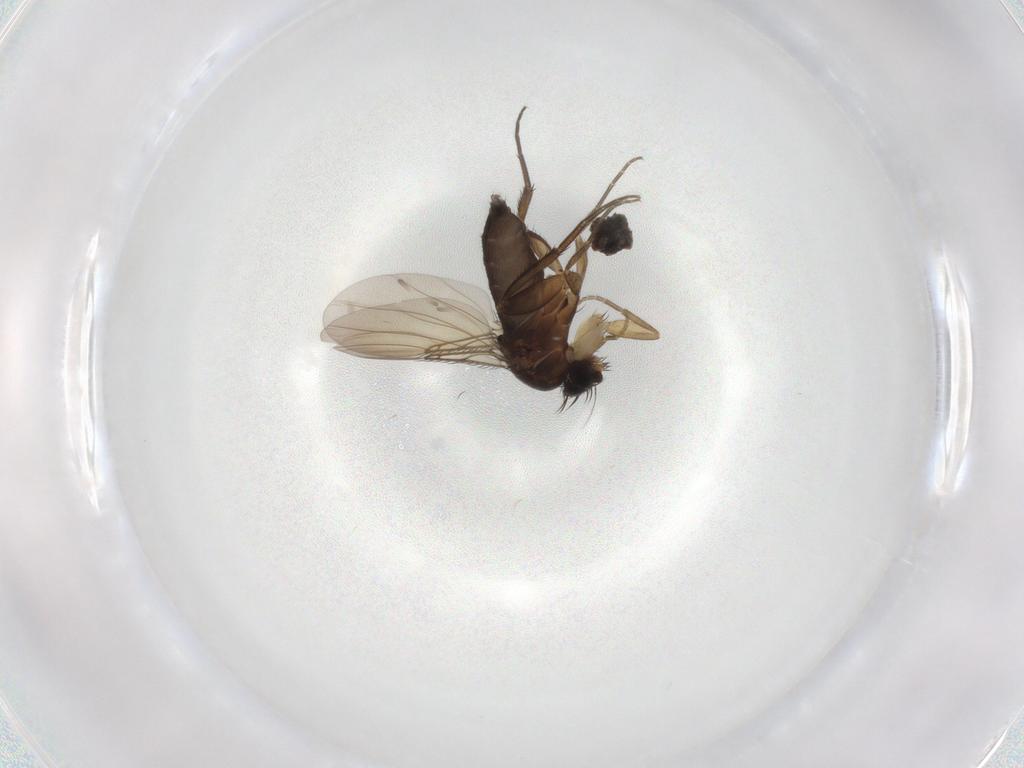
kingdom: Animalia
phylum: Arthropoda
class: Insecta
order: Diptera
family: Phoridae
